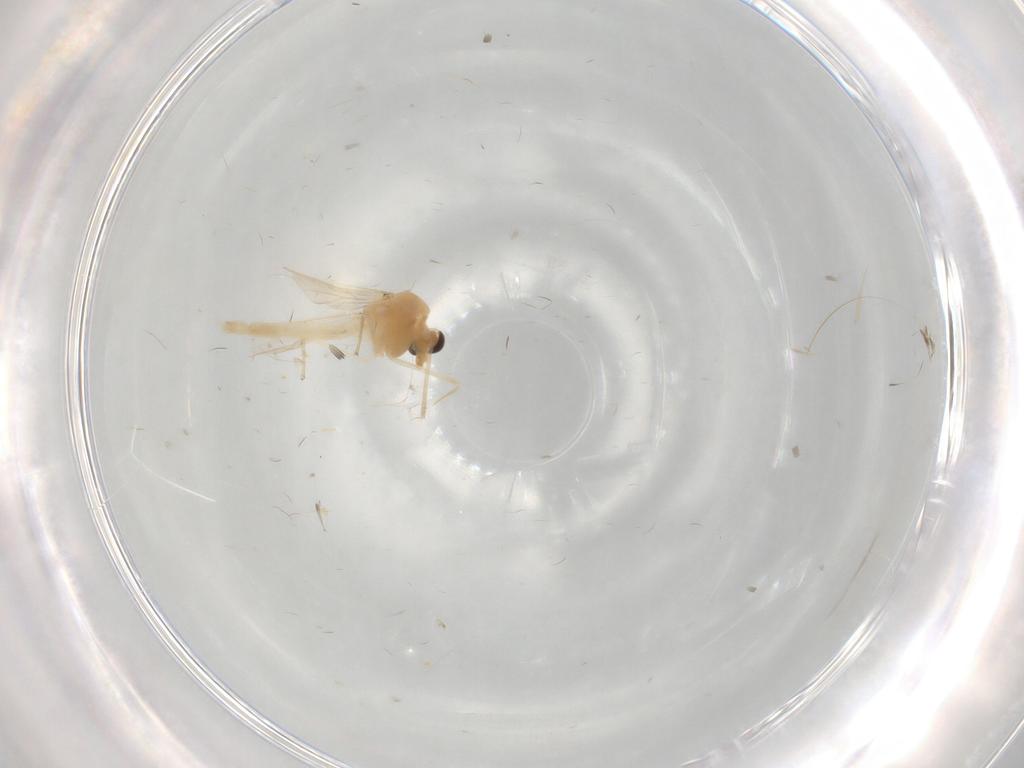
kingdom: Animalia
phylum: Arthropoda
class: Insecta
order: Diptera
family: Chironomidae
